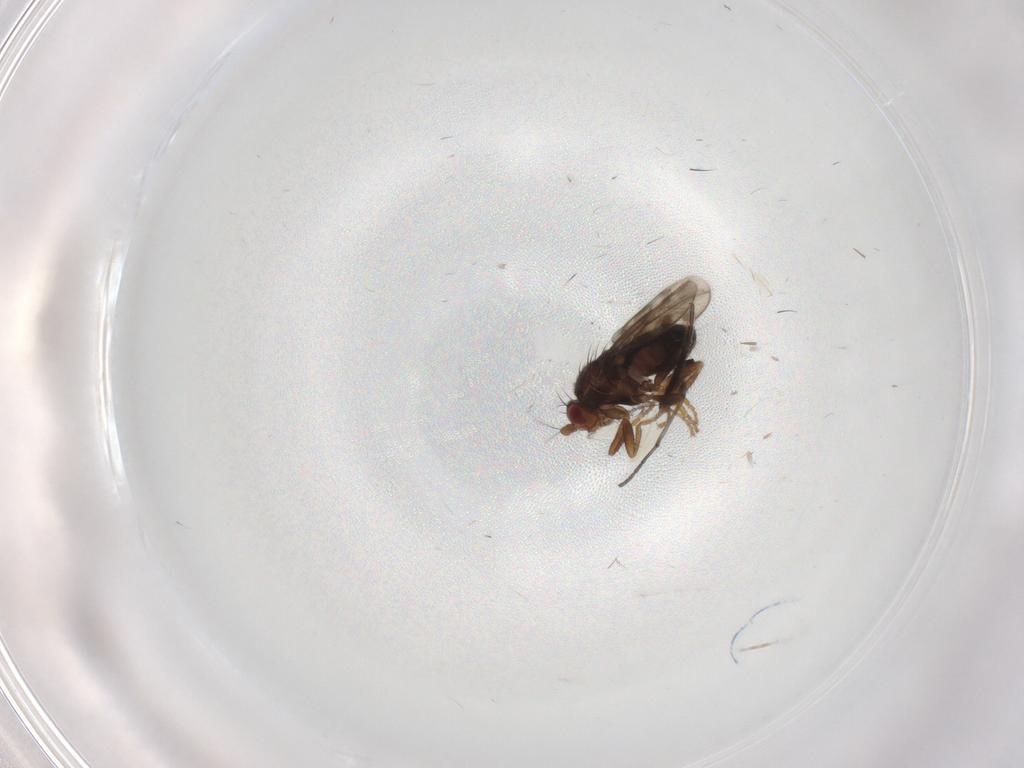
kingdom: Animalia
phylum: Arthropoda
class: Insecta
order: Diptera
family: Sphaeroceridae
